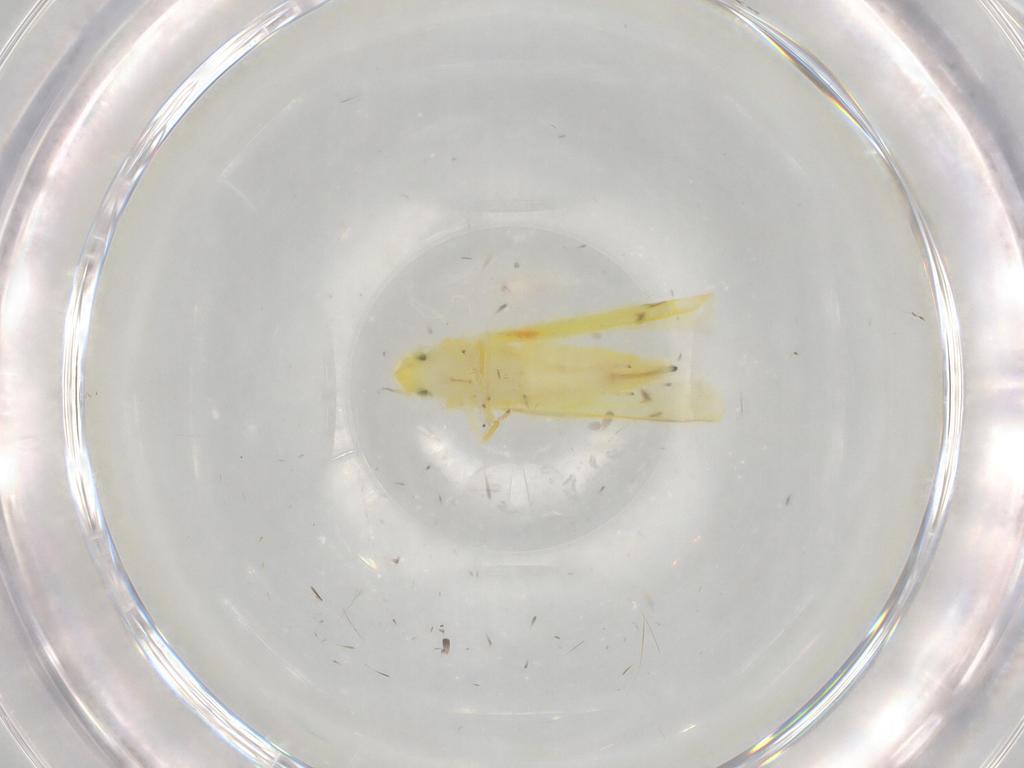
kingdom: Animalia
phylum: Arthropoda
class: Insecta
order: Hemiptera
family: Cicadellidae
